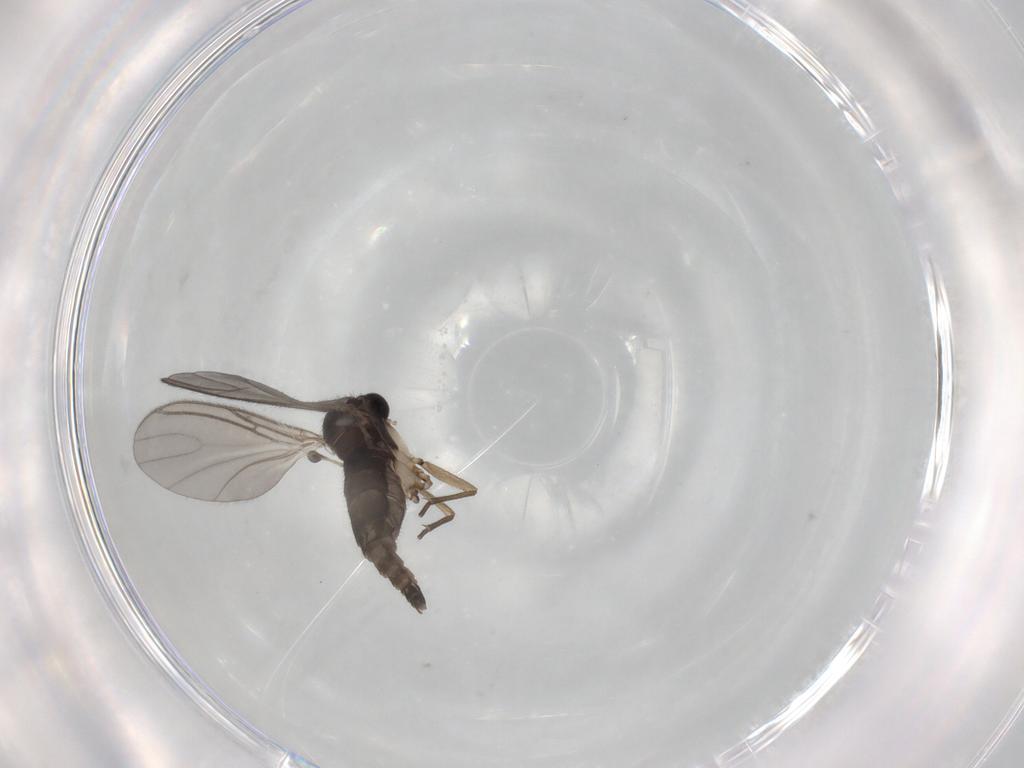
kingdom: Animalia
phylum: Arthropoda
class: Insecta
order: Diptera
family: Sciaridae
